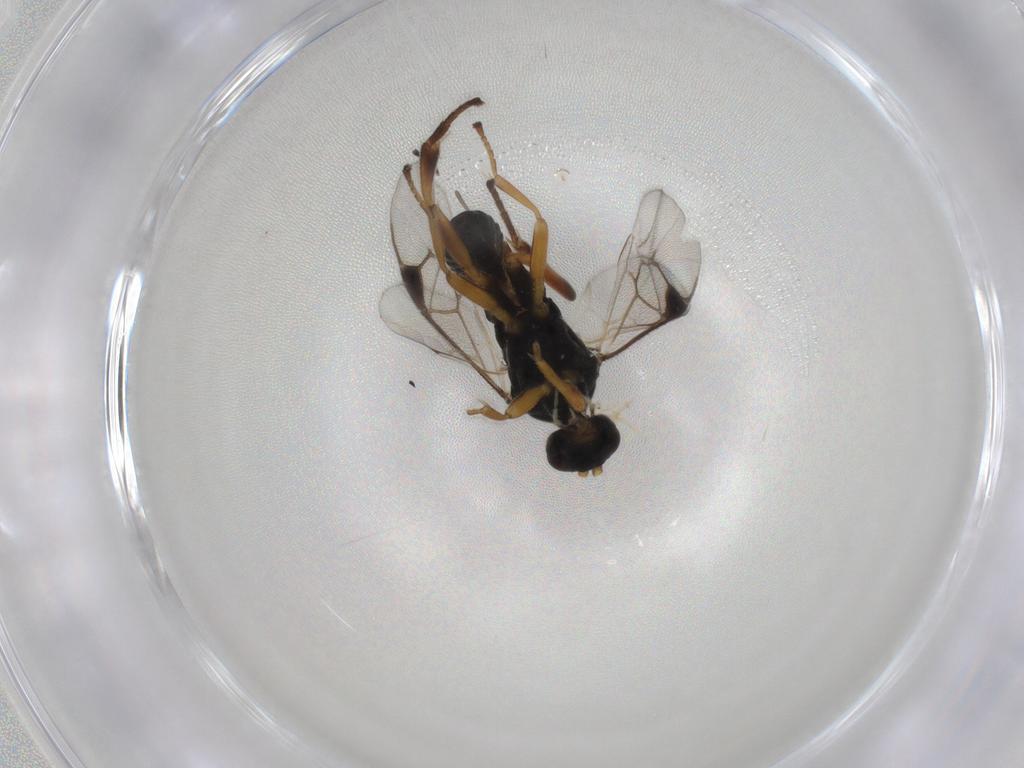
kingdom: Animalia
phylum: Arthropoda
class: Insecta
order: Hymenoptera
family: Braconidae
